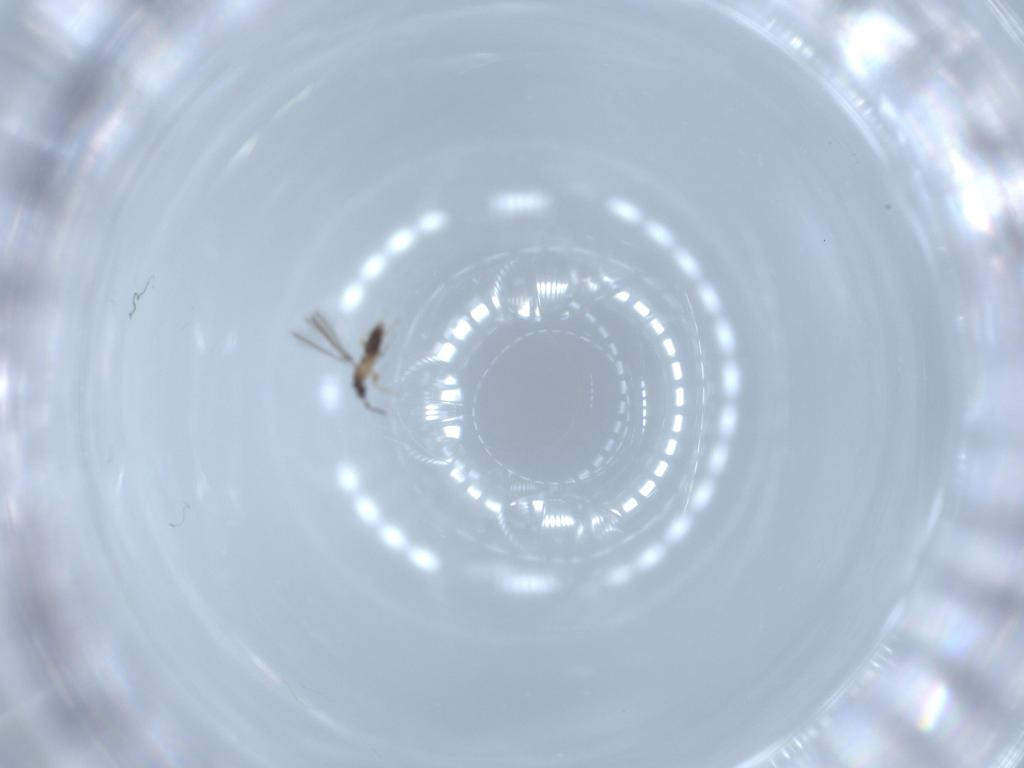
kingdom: Animalia
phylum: Arthropoda
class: Insecta
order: Hymenoptera
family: Mymaridae
